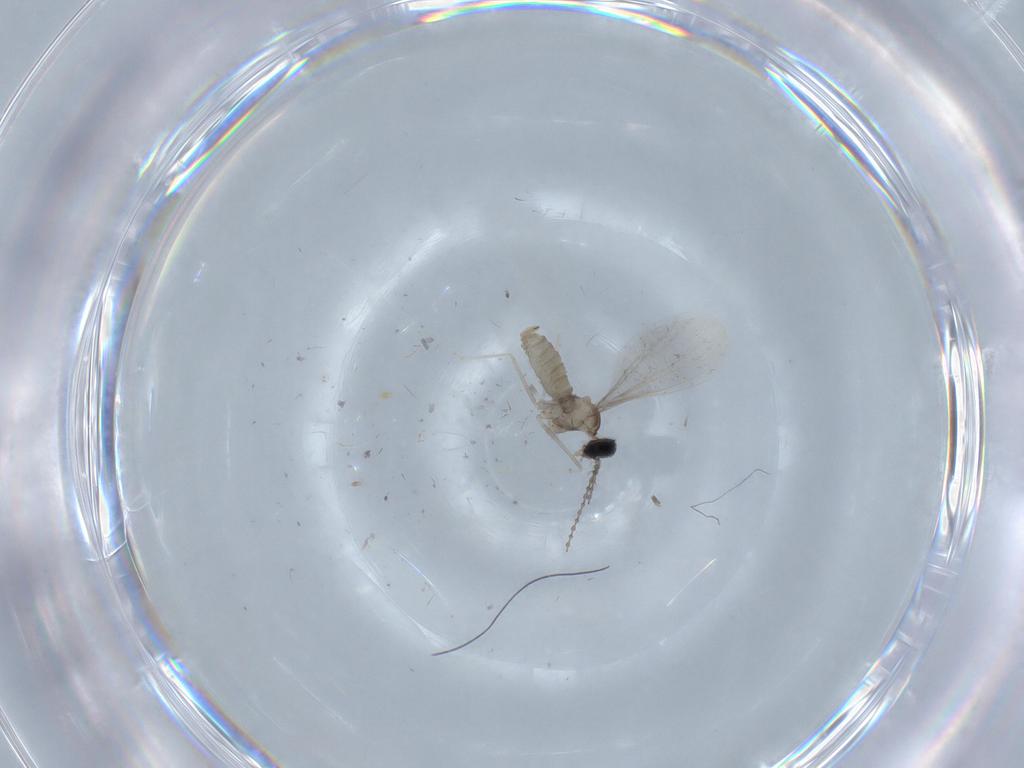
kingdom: Animalia
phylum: Arthropoda
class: Insecta
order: Diptera
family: Cecidomyiidae
